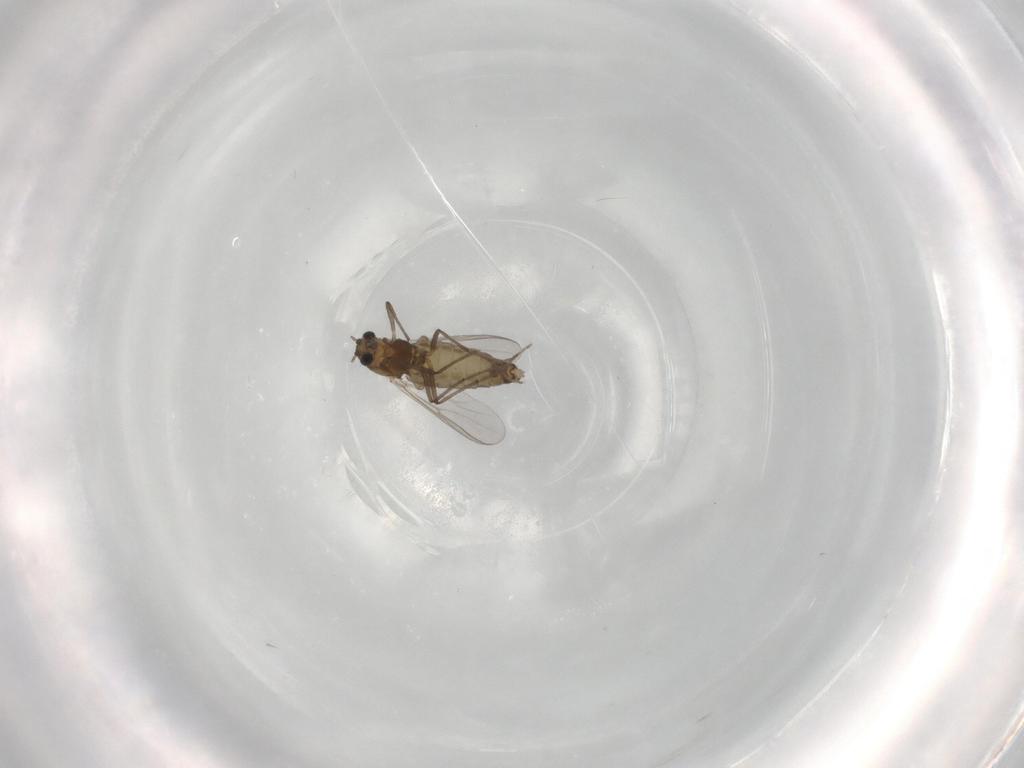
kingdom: Animalia
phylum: Arthropoda
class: Insecta
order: Diptera
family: Chironomidae
